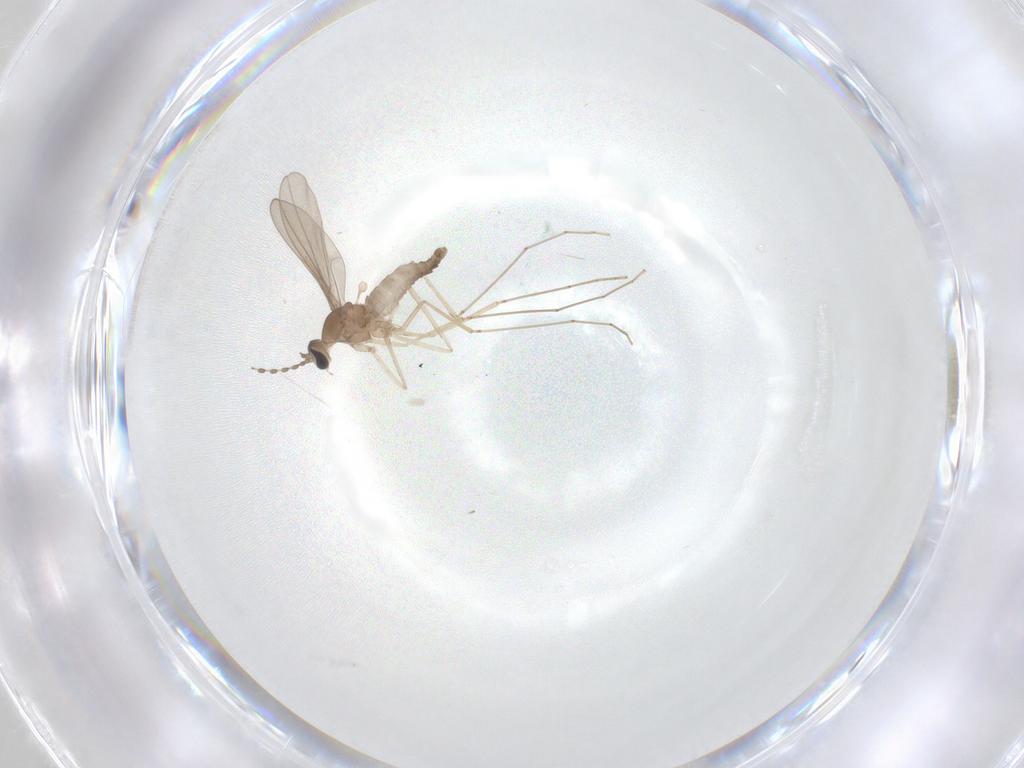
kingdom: Animalia
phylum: Arthropoda
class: Insecta
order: Diptera
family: Cecidomyiidae
